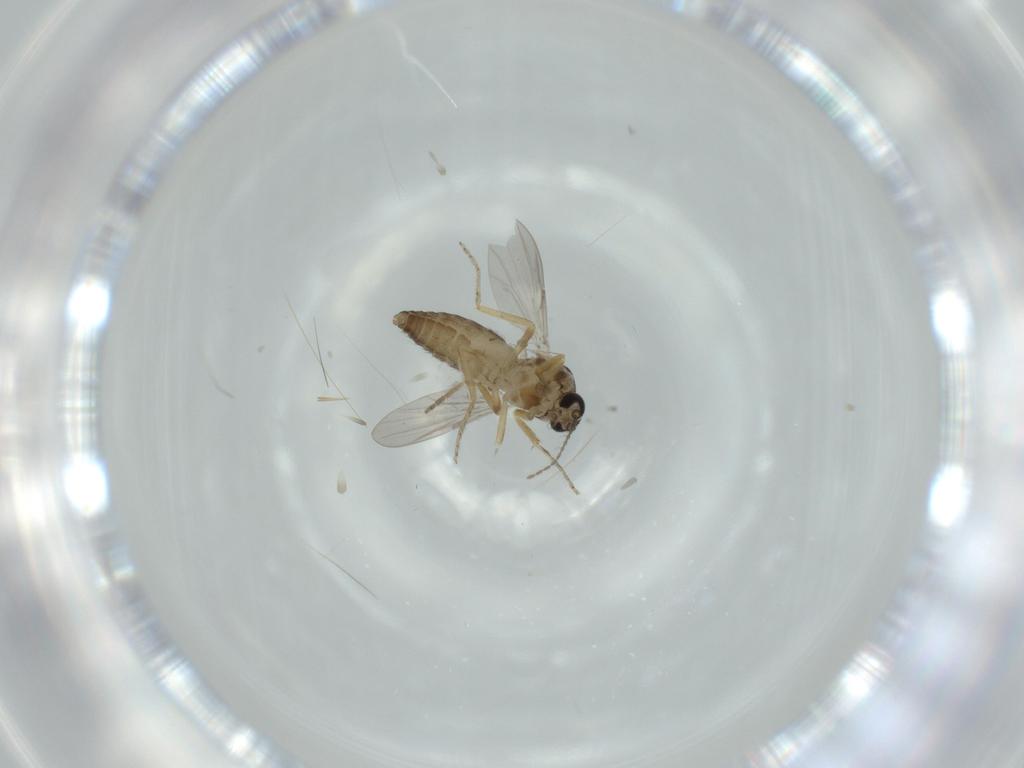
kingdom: Animalia
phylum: Arthropoda
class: Insecta
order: Diptera
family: Ceratopogonidae
